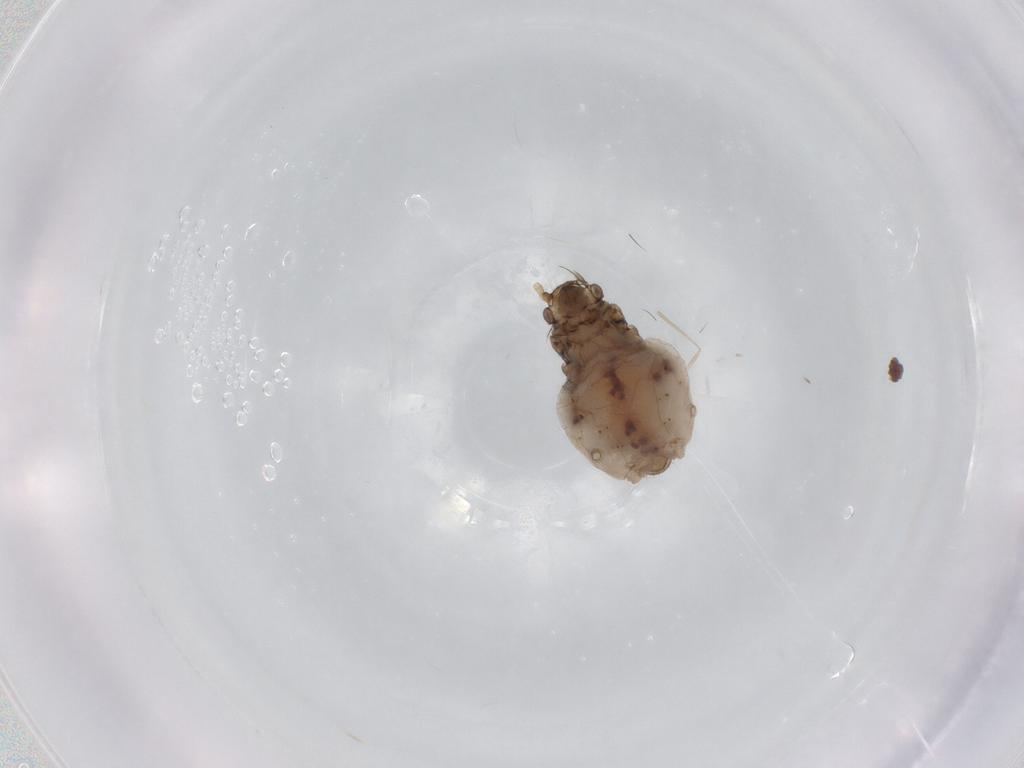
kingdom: Animalia
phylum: Arthropoda
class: Insecta
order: Hemiptera
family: Aphididae
